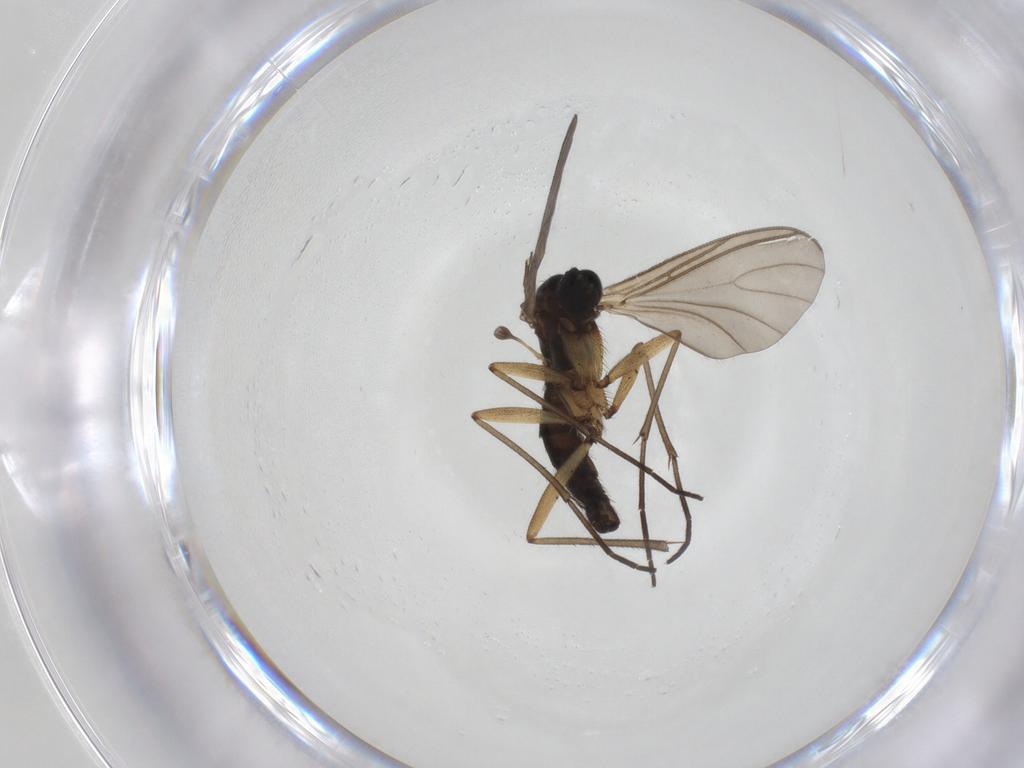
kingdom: Animalia
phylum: Arthropoda
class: Insecta
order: Diptera
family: Sciaridae
